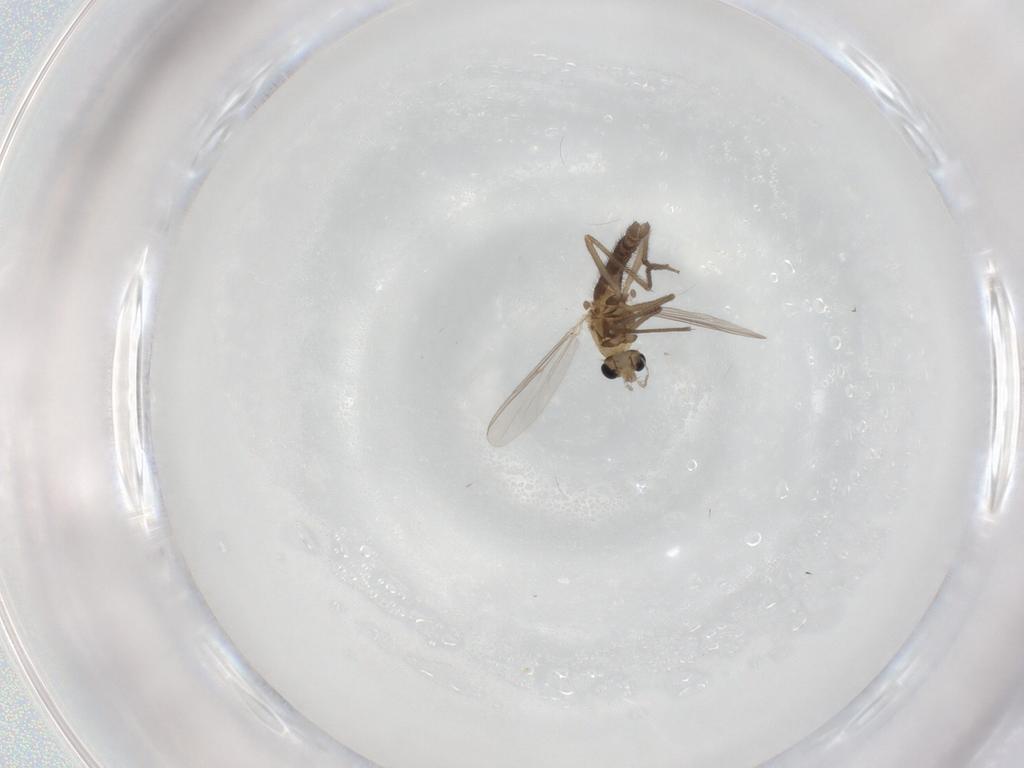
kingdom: Animalia
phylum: Arthropoda
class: Insecta
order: Diptera
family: Chironomidae
